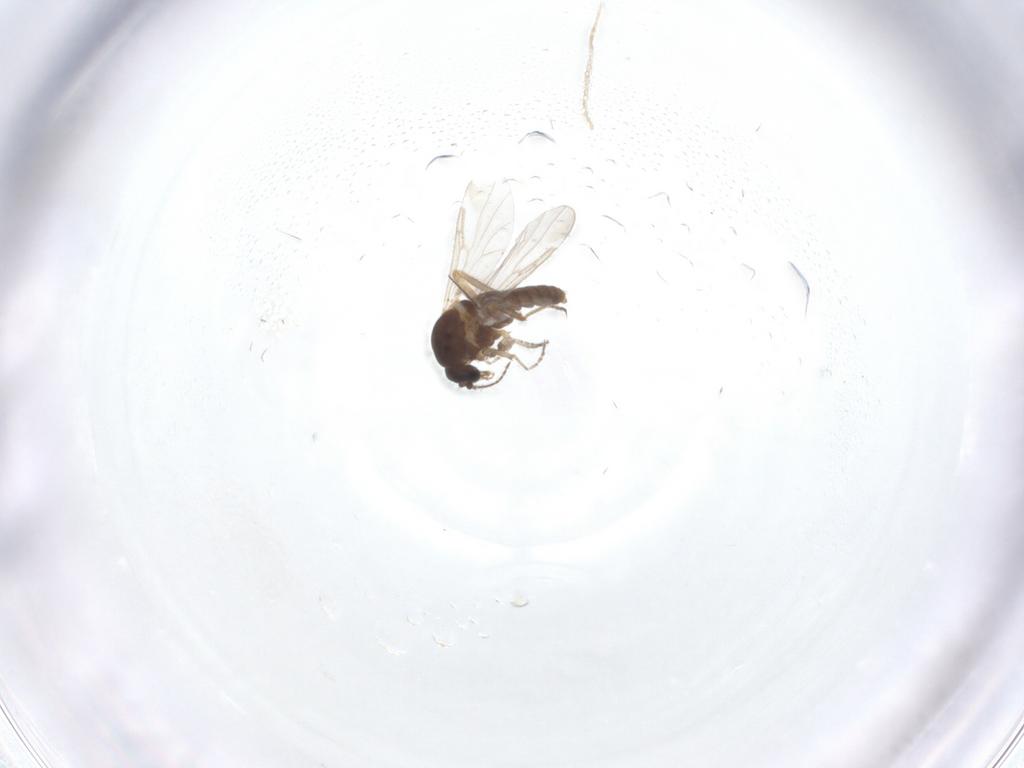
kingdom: Animalia
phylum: Arthropoda
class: Insecta
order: Diptera
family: Ceratopogonidae
